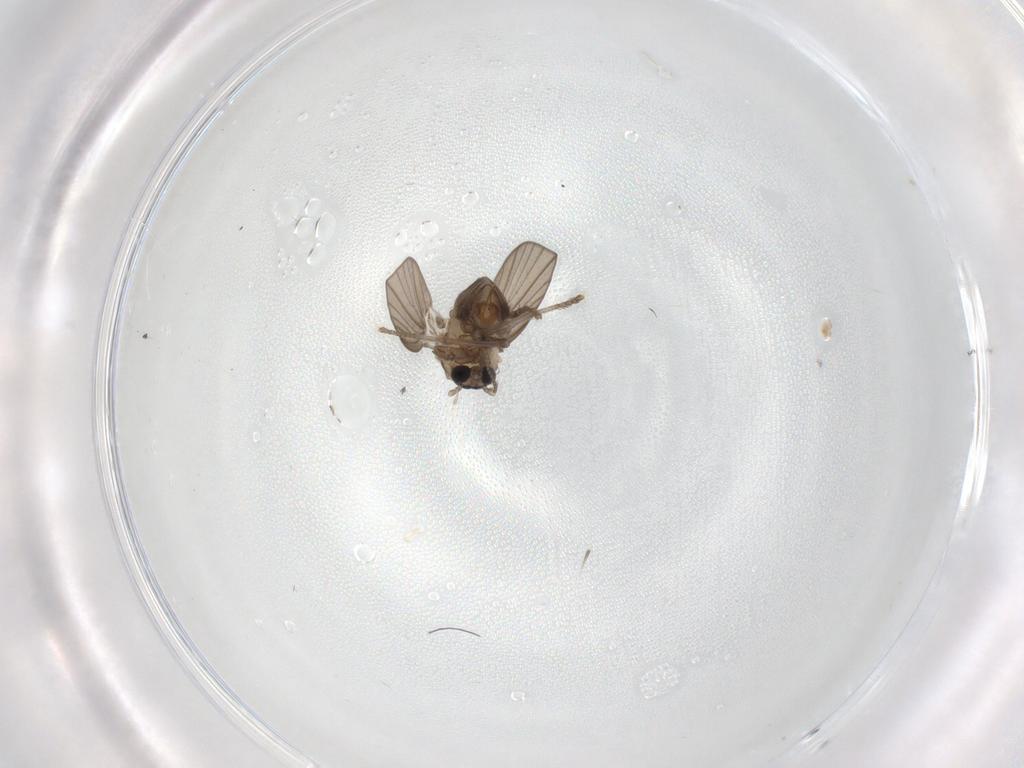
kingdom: Animalia
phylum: Arthropoda
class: Insecta
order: Diptera
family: Psychodidae
